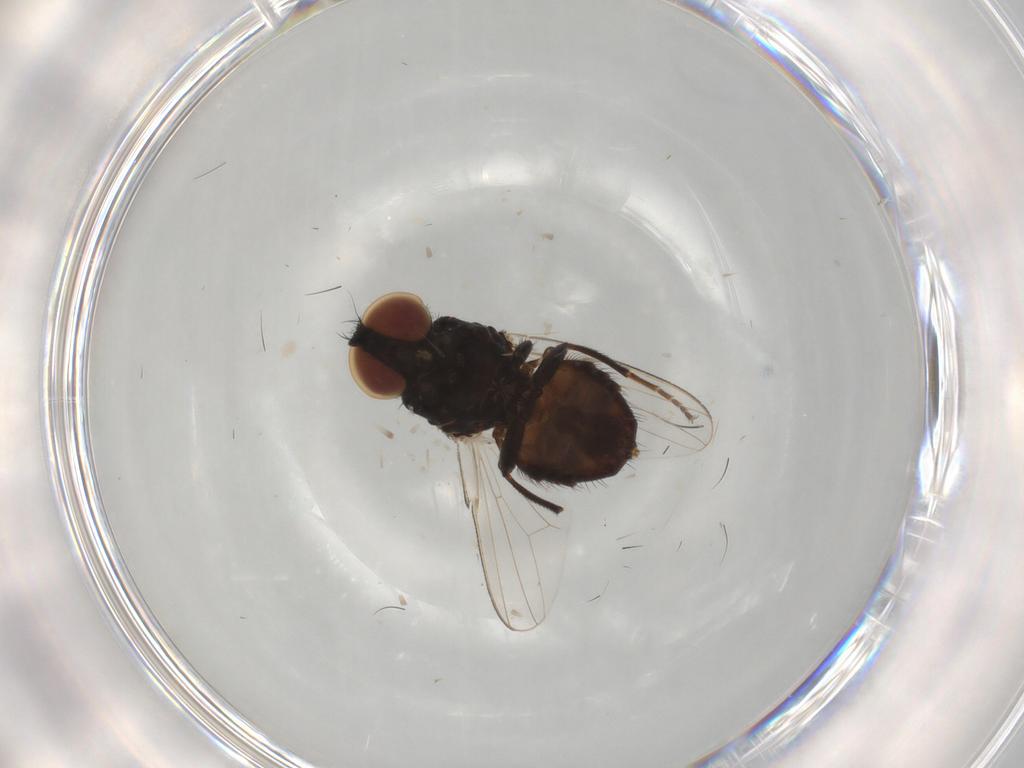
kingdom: Animalia
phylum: Arthropoda
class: Insecta
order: Diptera
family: Milichiidae
